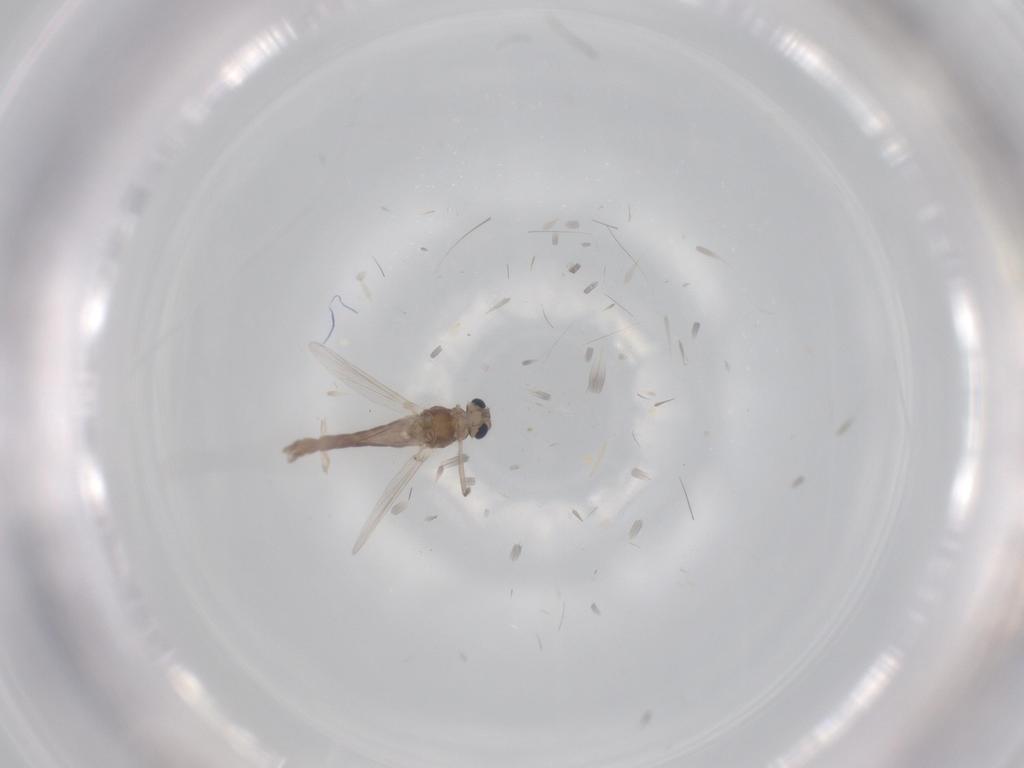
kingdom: Animalia
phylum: Arthropoda
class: Insecta
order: Diptera
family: Chironomidae
